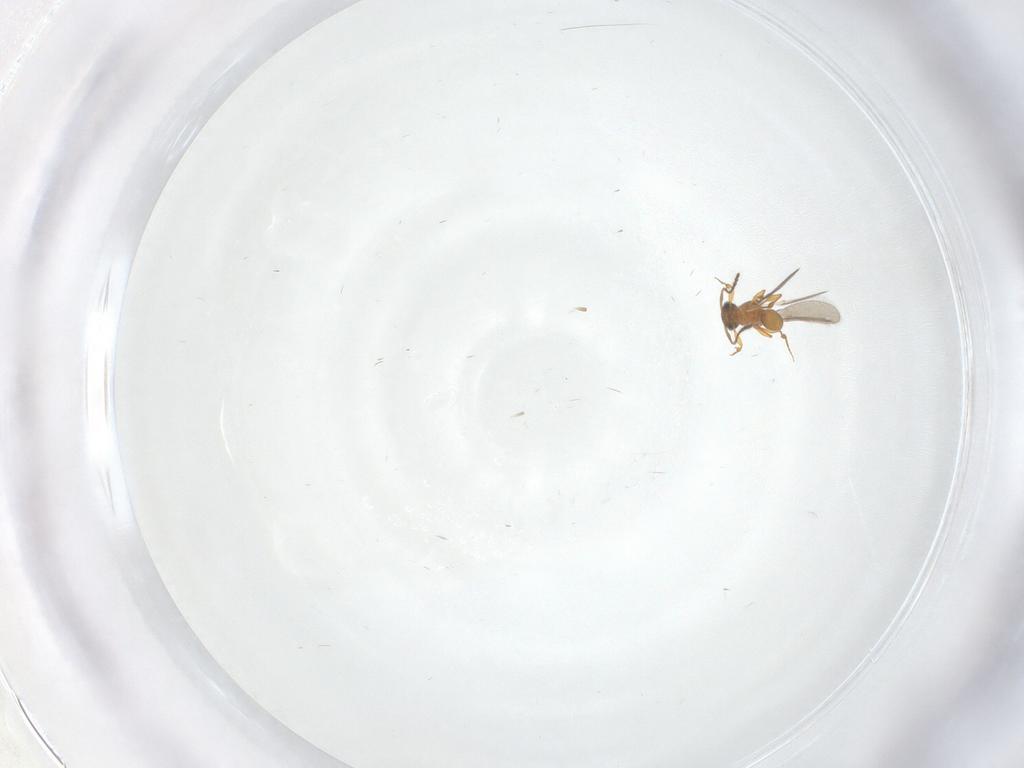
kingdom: Animalia
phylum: Arthropoda
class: Insecta
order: Hymenoptera
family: Platygastridae
